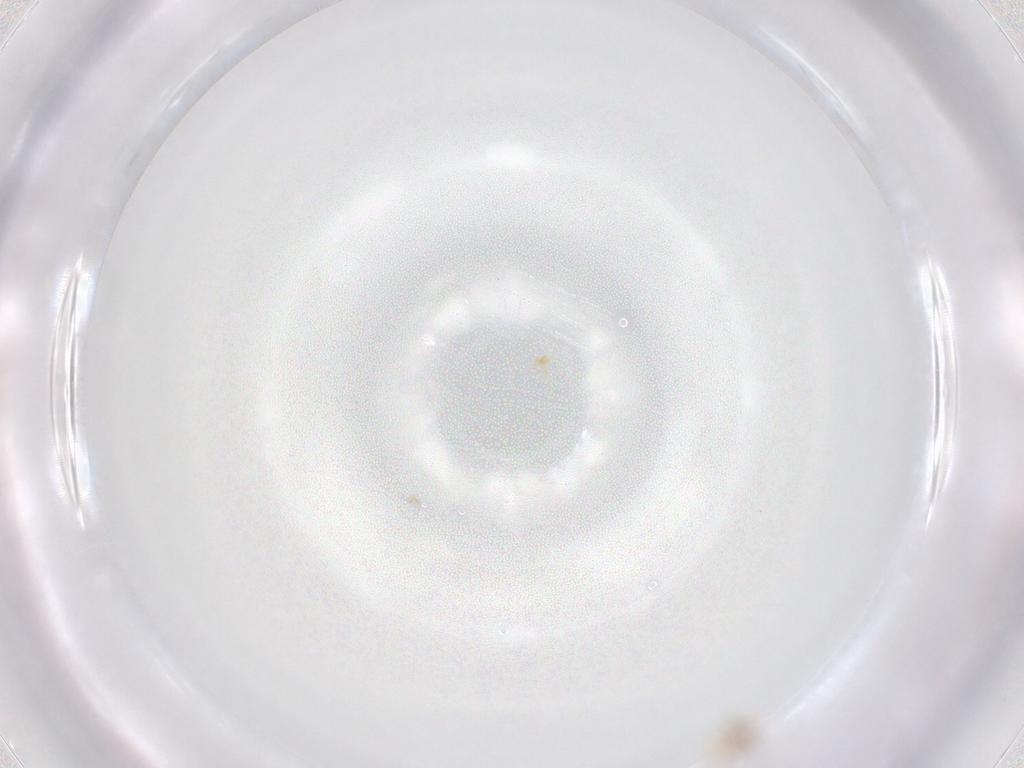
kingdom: Animalia
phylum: Arthropoda
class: Insecta
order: Hemiptera
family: Aleyrodidae
